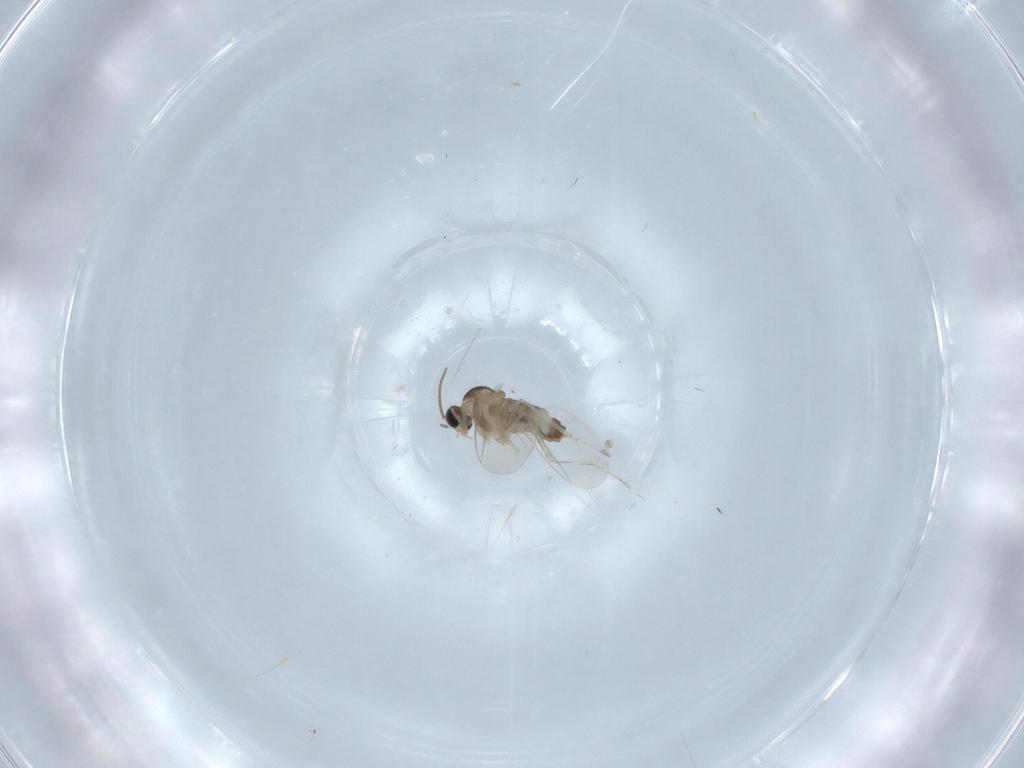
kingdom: Animalia
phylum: Arthropoda
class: Insecta
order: Diptera
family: Cecidomyiidae
